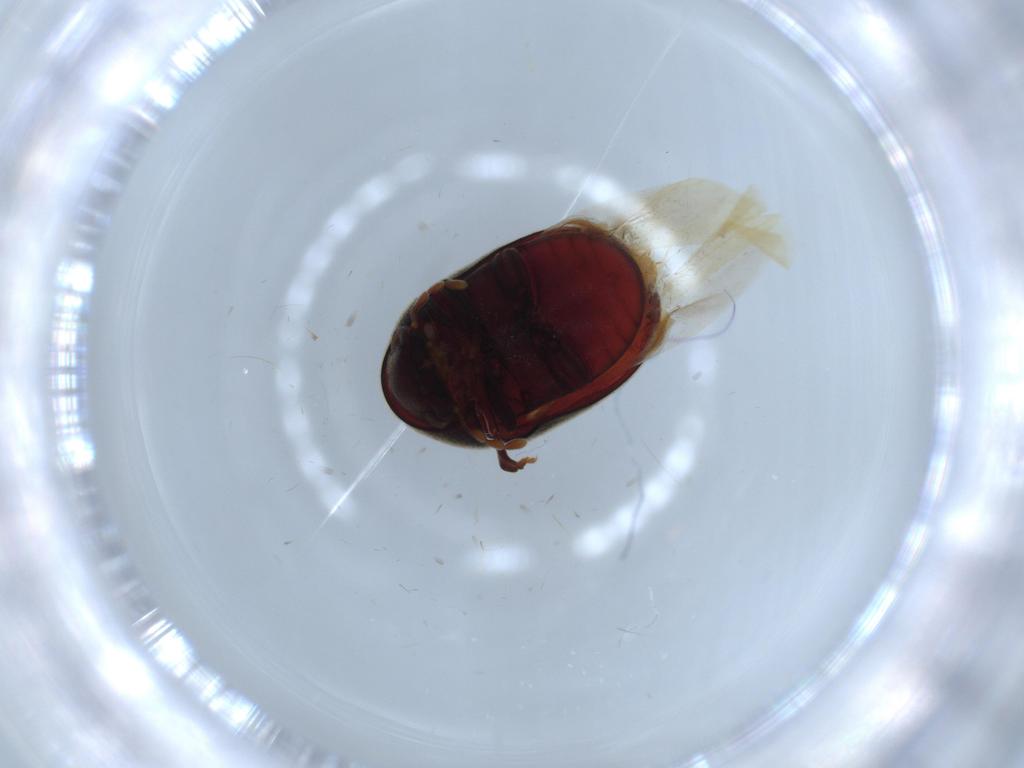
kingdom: Animalia
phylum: Arthropoda
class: Insecta
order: Coleoptera
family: Ptinidae
